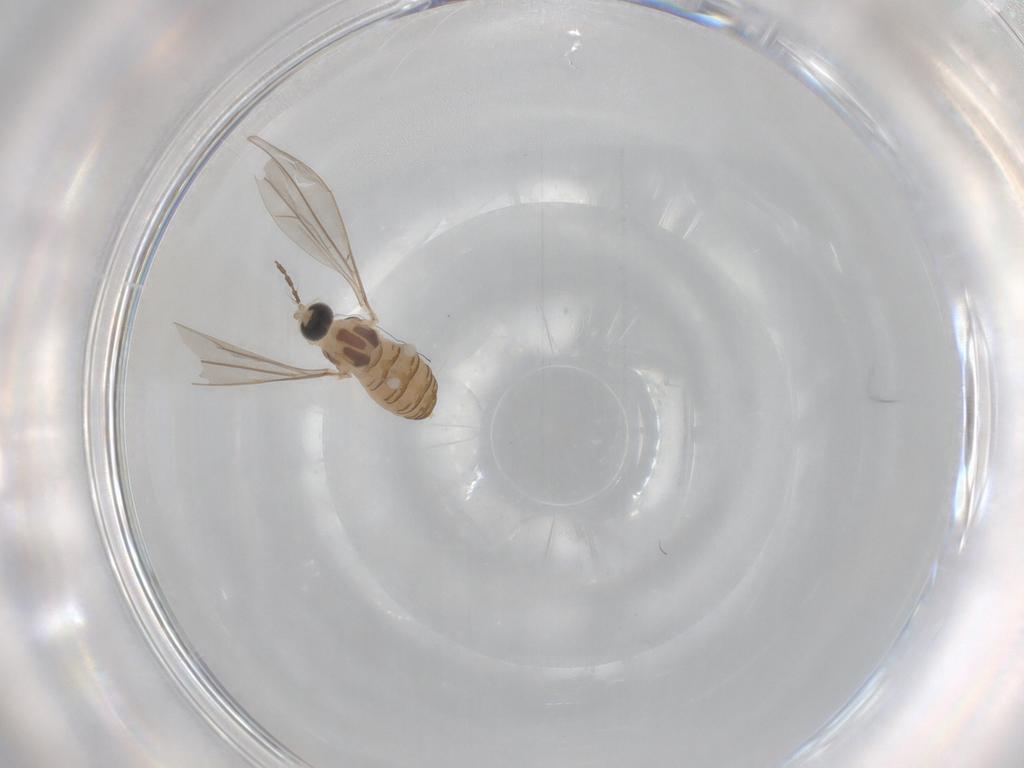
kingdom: Animalia
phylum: Arthropoda
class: Insecta
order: Diptera
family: Cecidomyiidae
